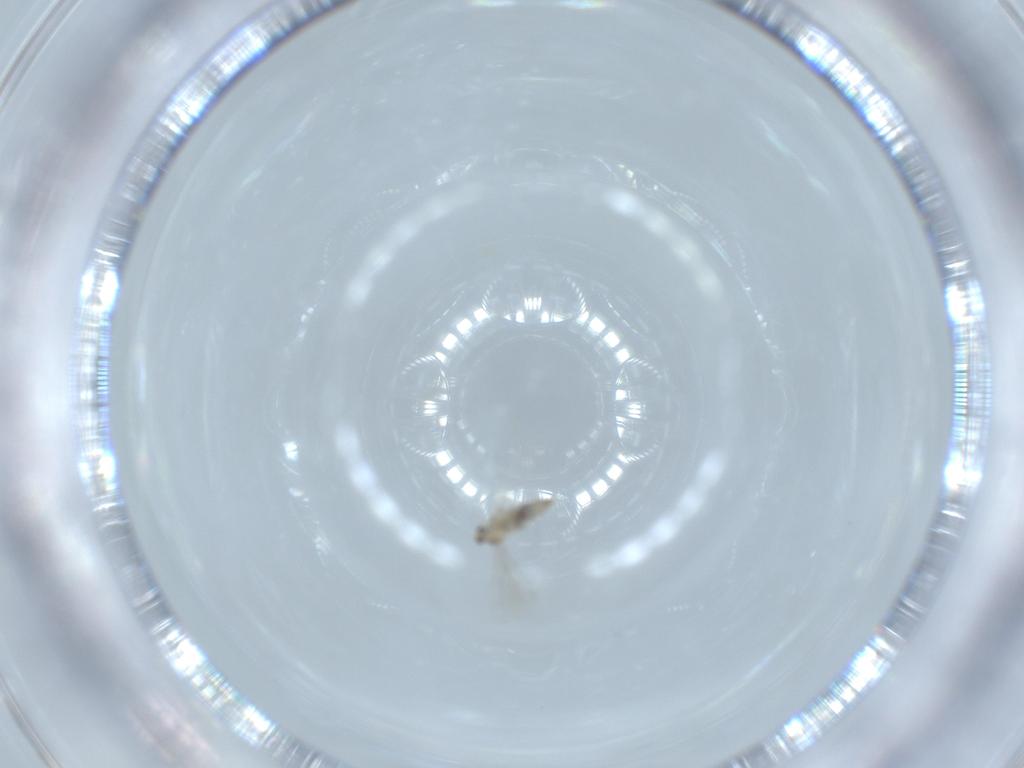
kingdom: Animalia
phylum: Arthropoda
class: Insecta
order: Diptera
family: Cecidomyiidae
